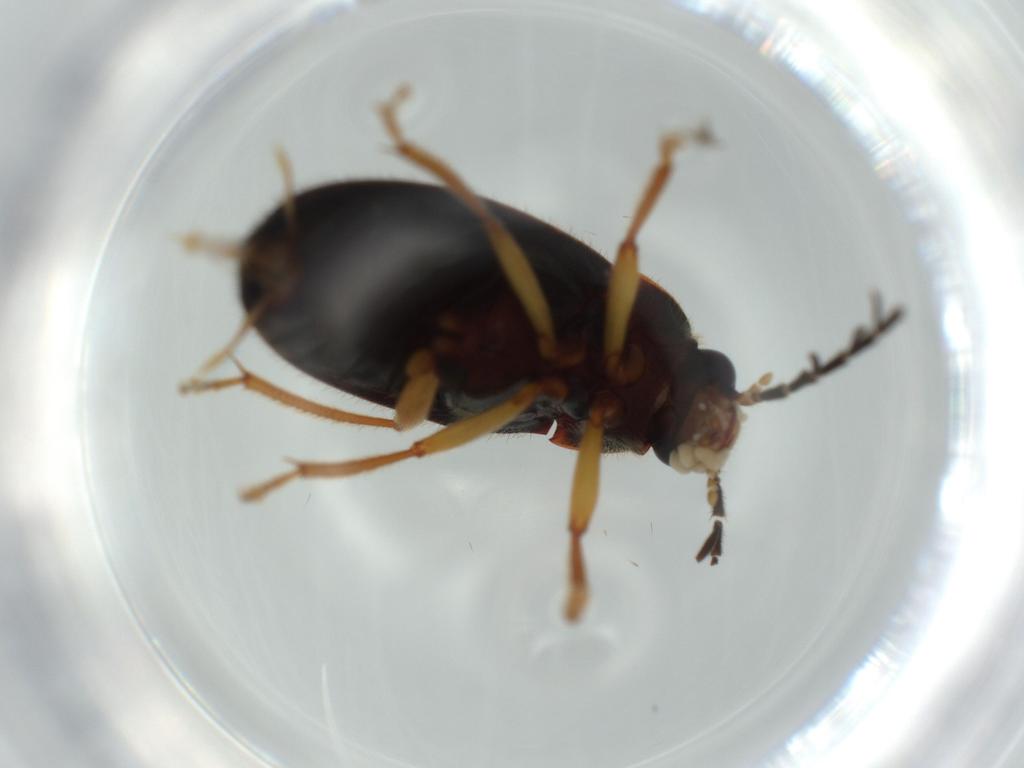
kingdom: Animalia
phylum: Arthropoda
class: Insecta
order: Coleoptera
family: Ptilodactylidae
